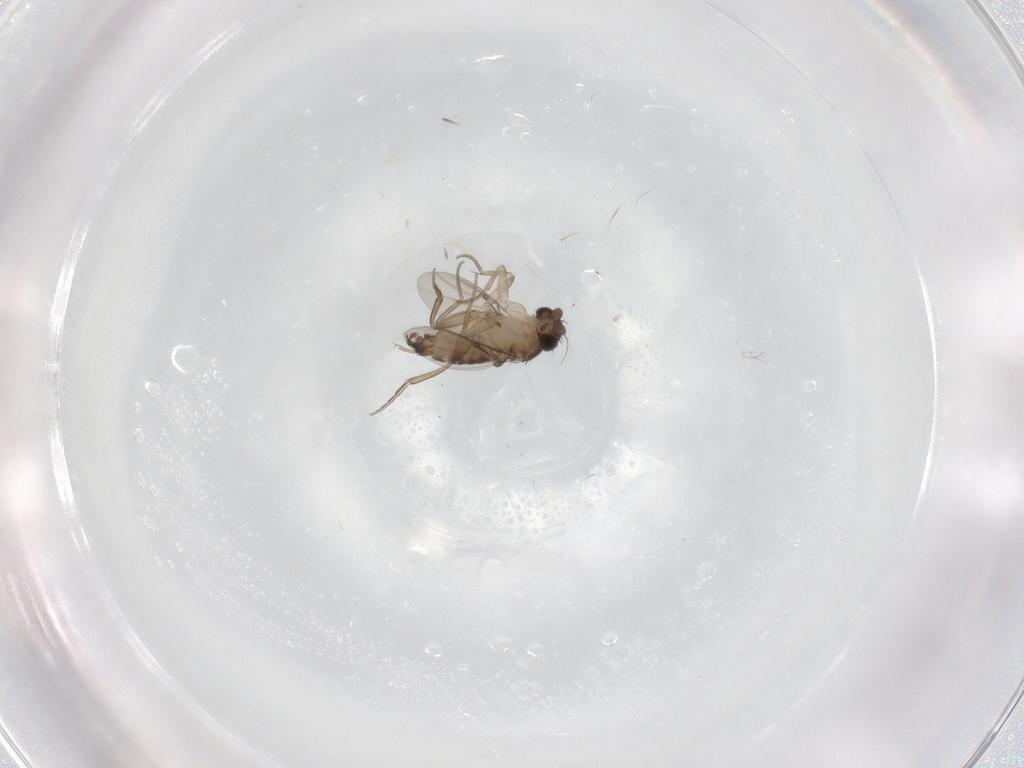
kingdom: Animalia
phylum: Arthropoda
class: Insecta
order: Diptera
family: Phoridae
